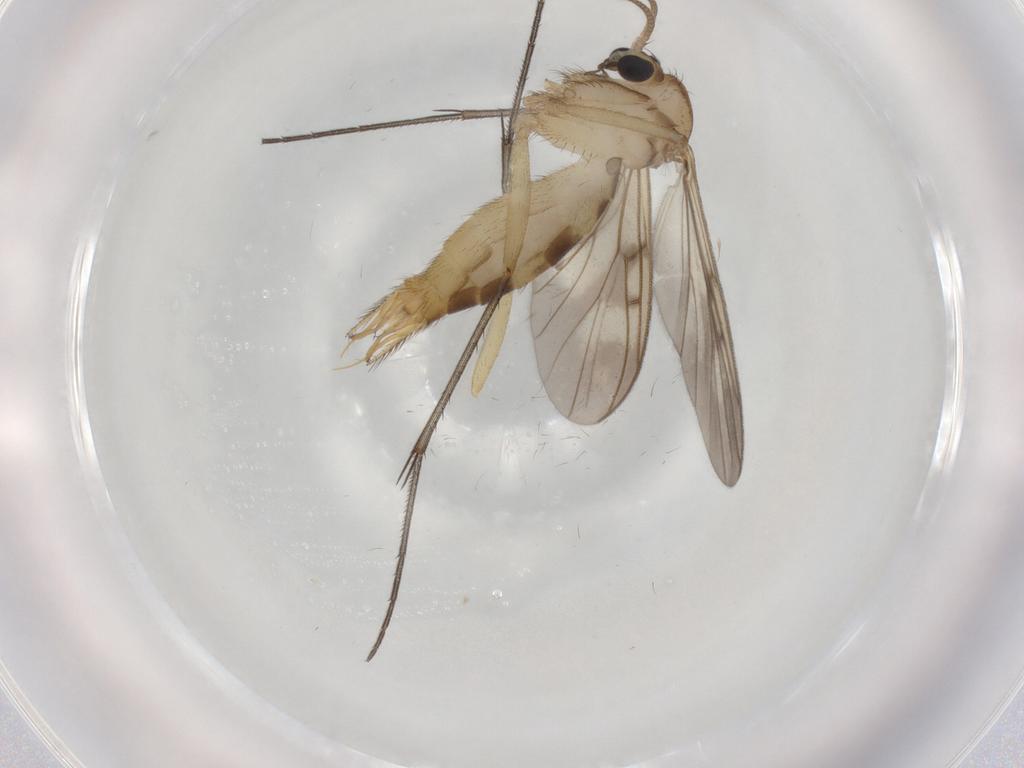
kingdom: Animalia
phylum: Arthropoda
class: Insecta
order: Diptera
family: Mycetophilidae
